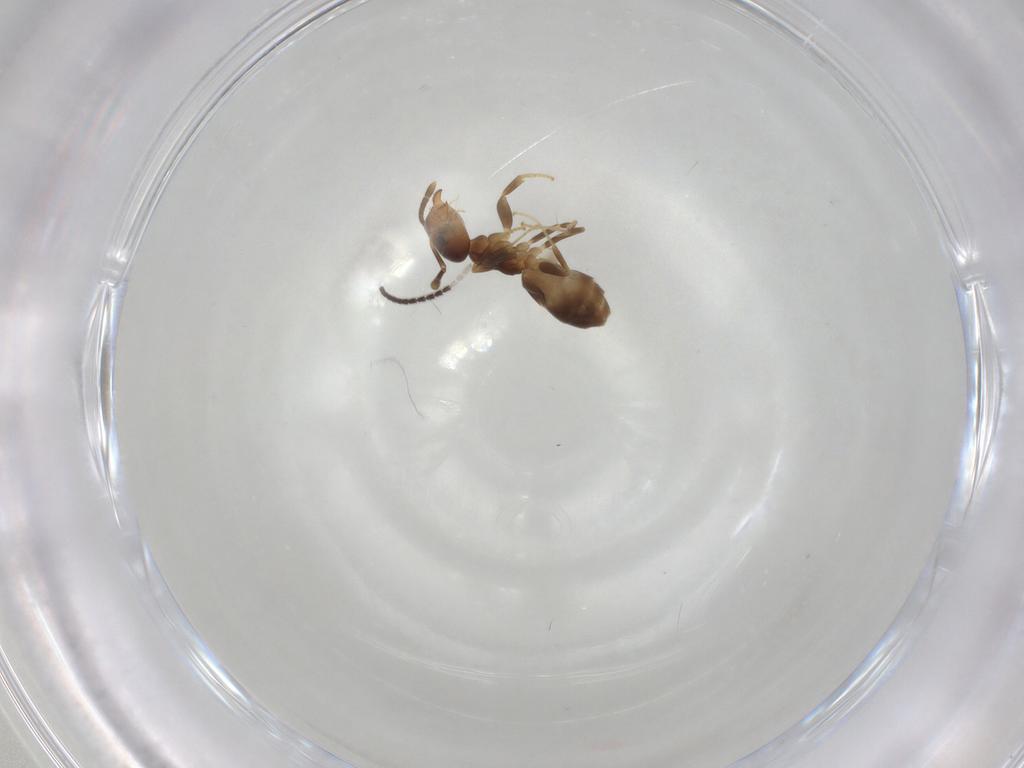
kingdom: Animalia
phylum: Arthropoda
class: Insecta
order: Hymenoptera
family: Formicidae
